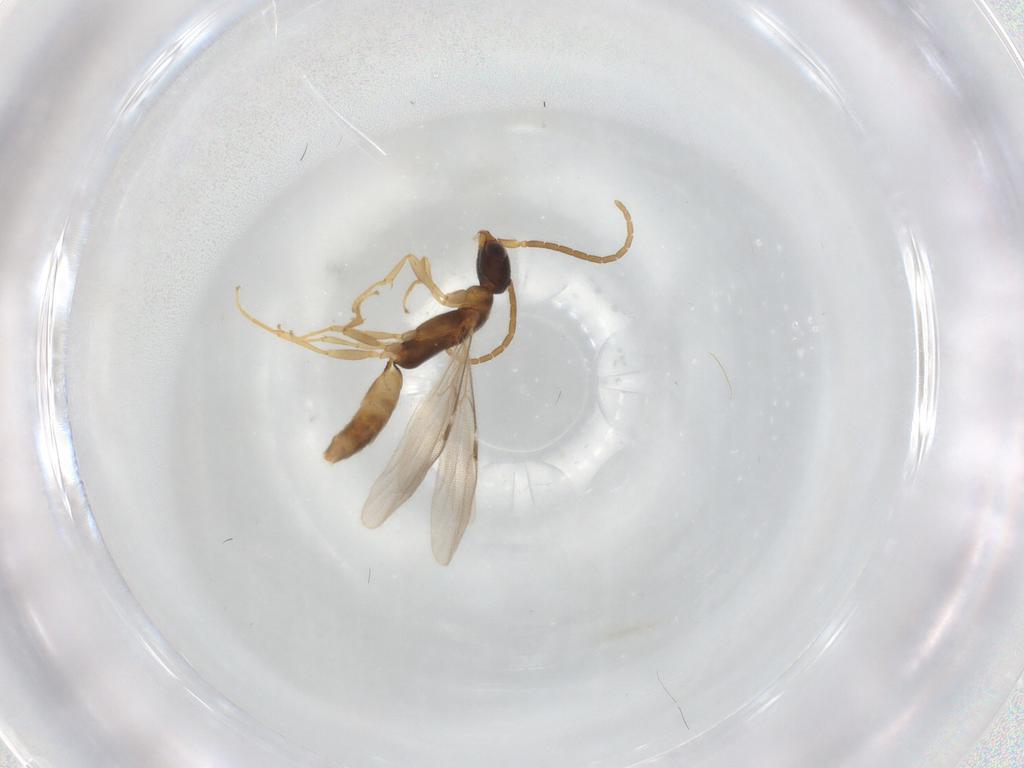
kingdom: Animalia
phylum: Arthropoda
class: Insecta
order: Hymenoptera
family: Bethylidae
